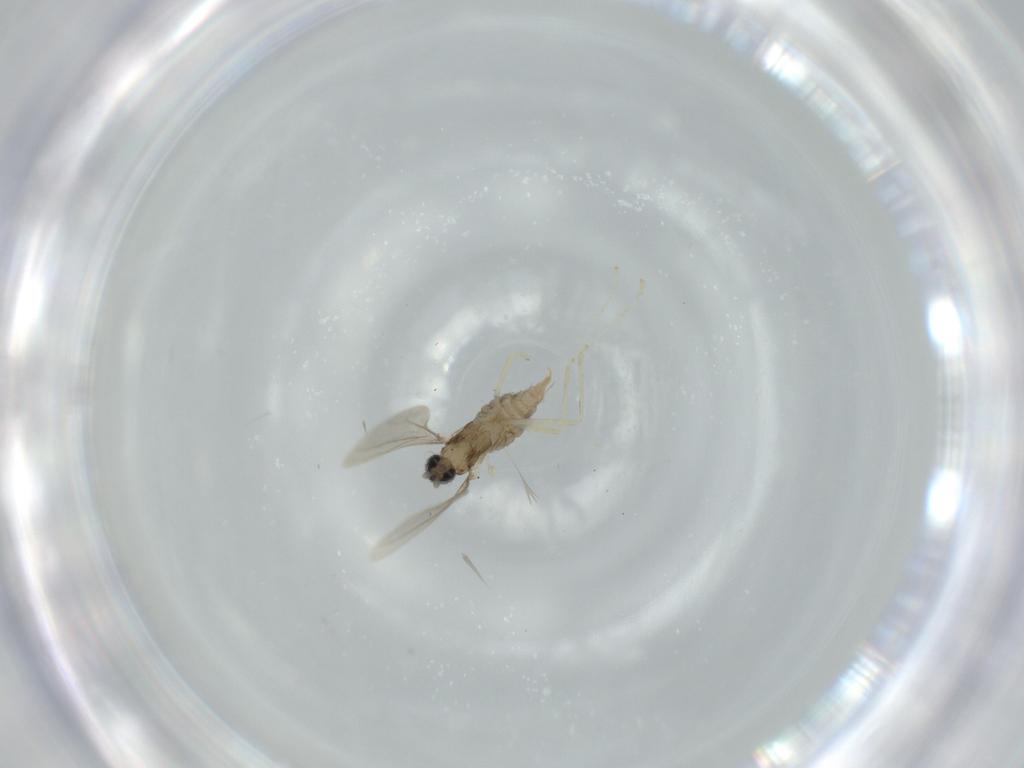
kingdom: Animalia
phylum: Arthropoda
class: Insecta
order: Diptera
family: Cecidomyiidae
